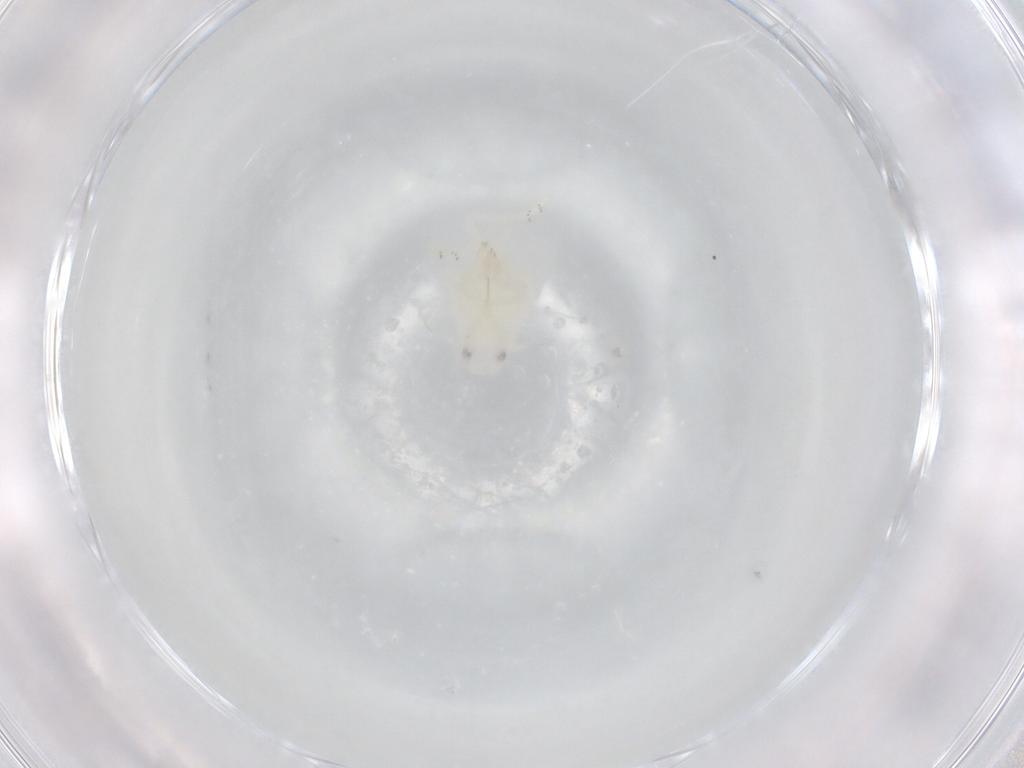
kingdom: Animalia
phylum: Arthropoda
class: Insecta
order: Hemiptera
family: Flatidae
